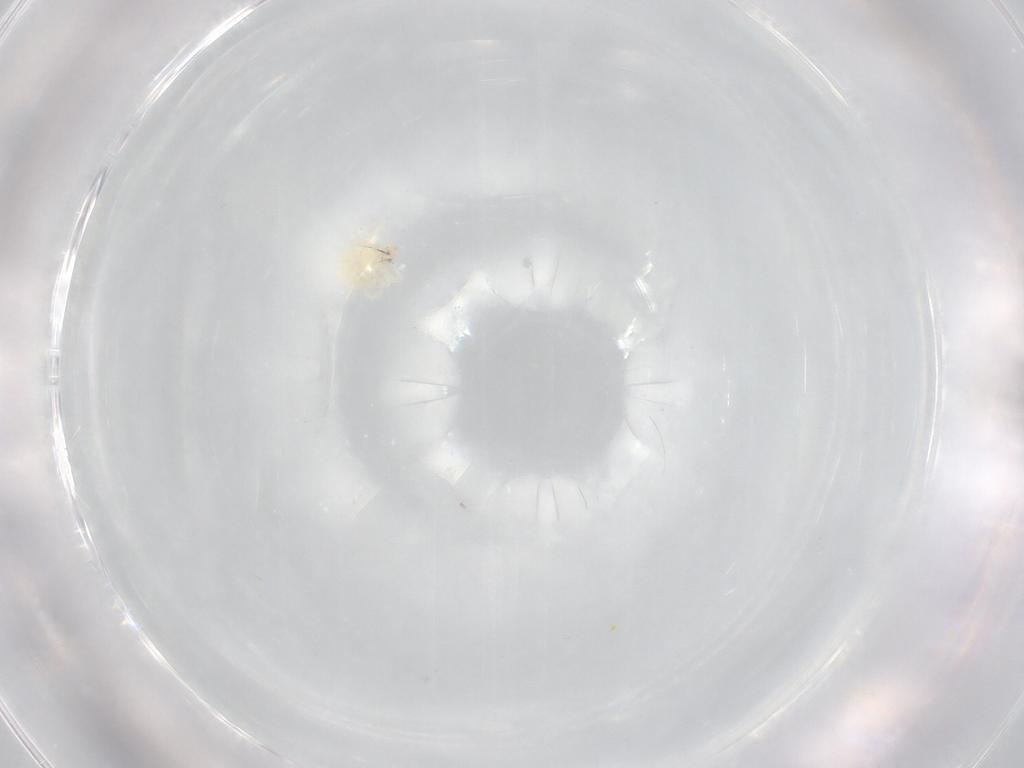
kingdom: Animalia
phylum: Arthropoda
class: Arachnida
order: Trombidiformes
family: Anystidae
